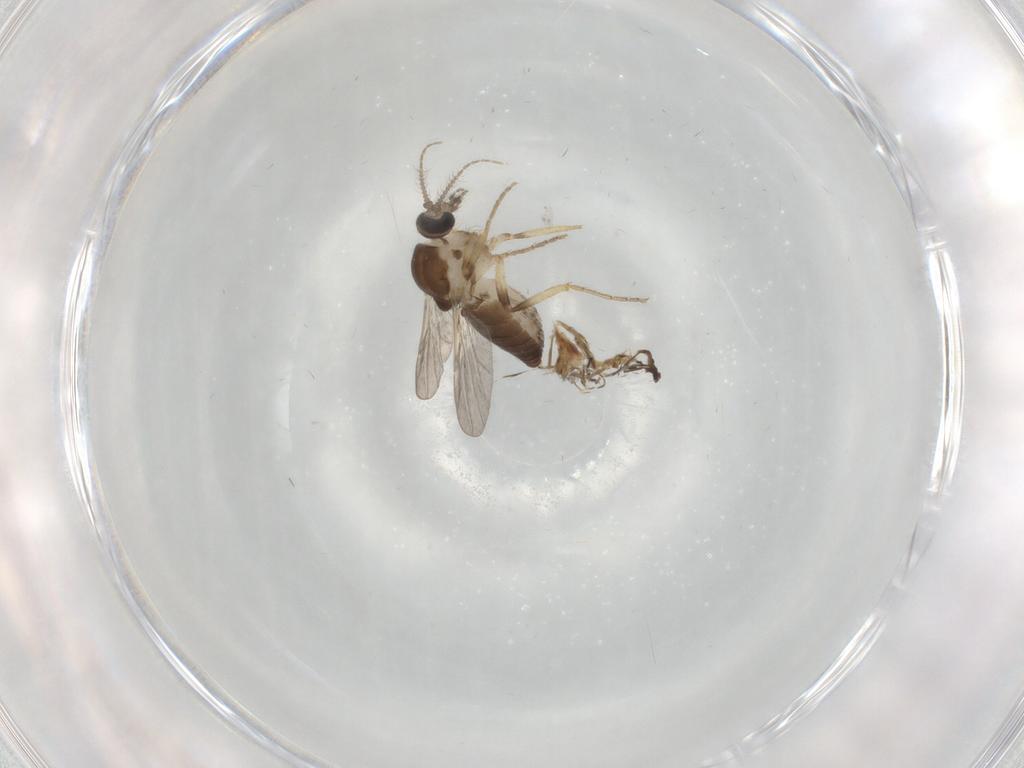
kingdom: Animalia
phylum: Arthropoda
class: Insecta
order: Diptera
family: Ceratopogonidae
